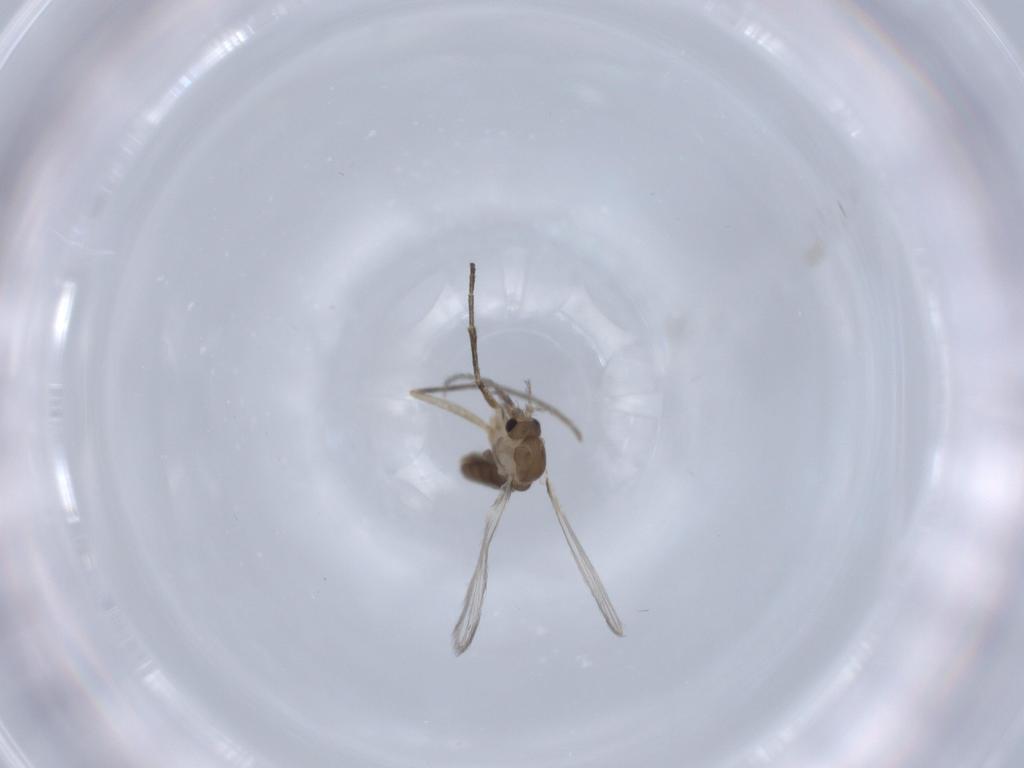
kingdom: Animalia
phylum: Arthropoda
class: Insecta
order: Diptera
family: Psychodidae
